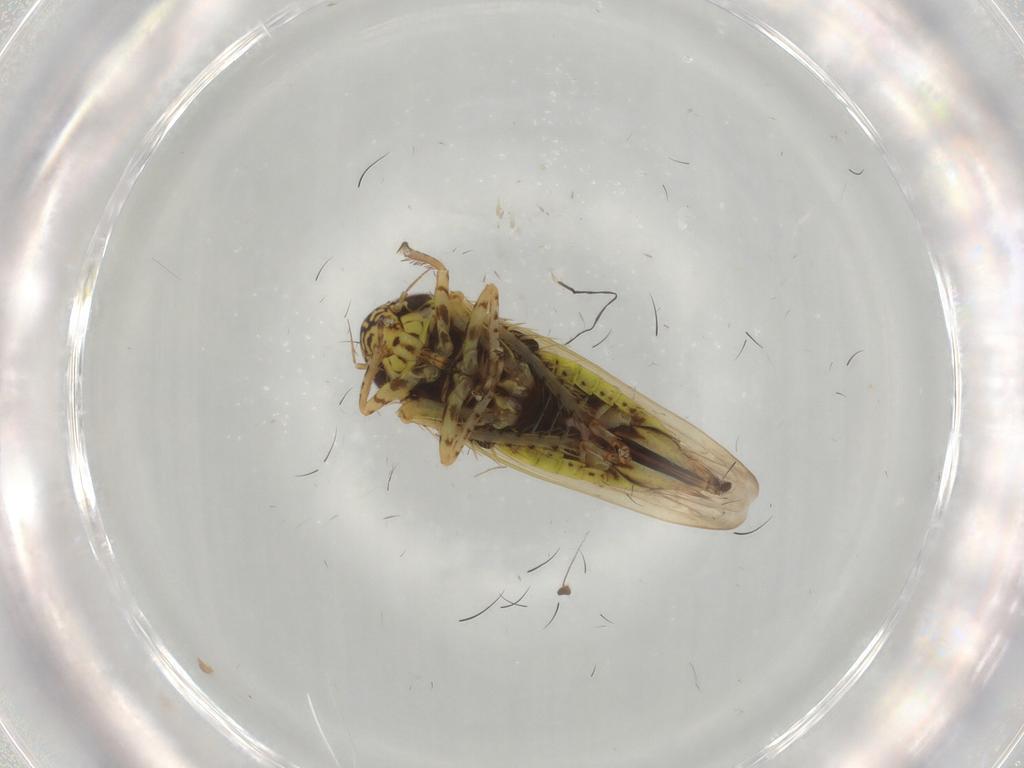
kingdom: Animalia
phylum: Arthropoda
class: Insecta
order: Hemiptera
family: Cicadellidae
